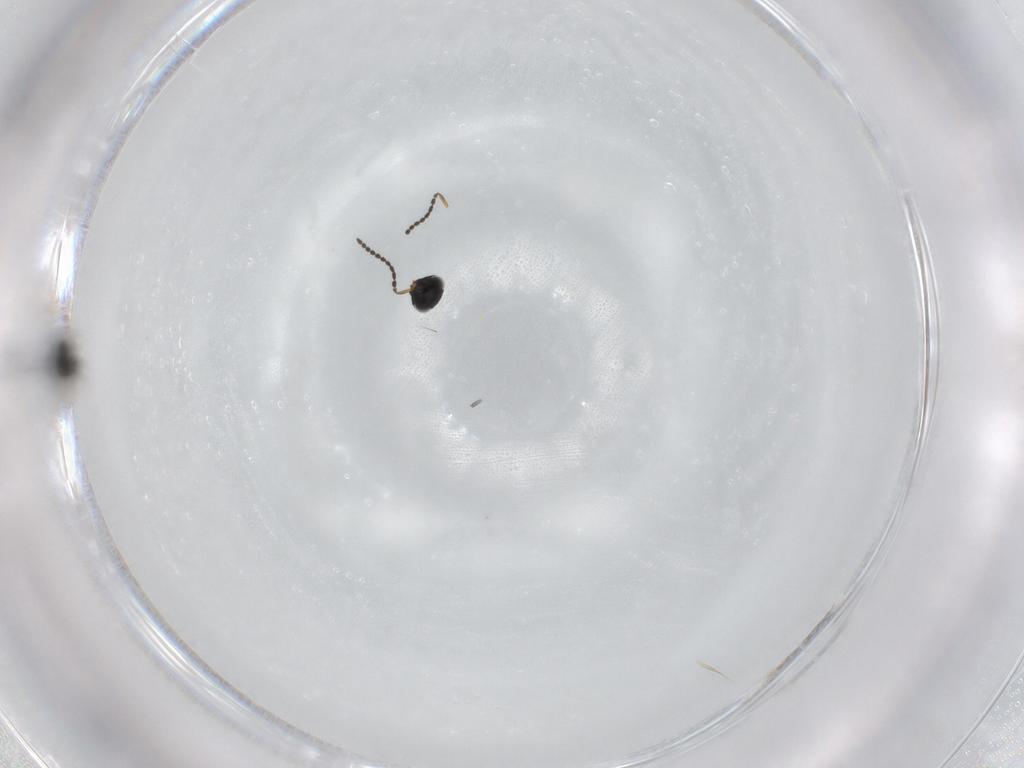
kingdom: Animalia
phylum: Arthropoda
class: Insecta
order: Hymenoptera
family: Scelionidae
